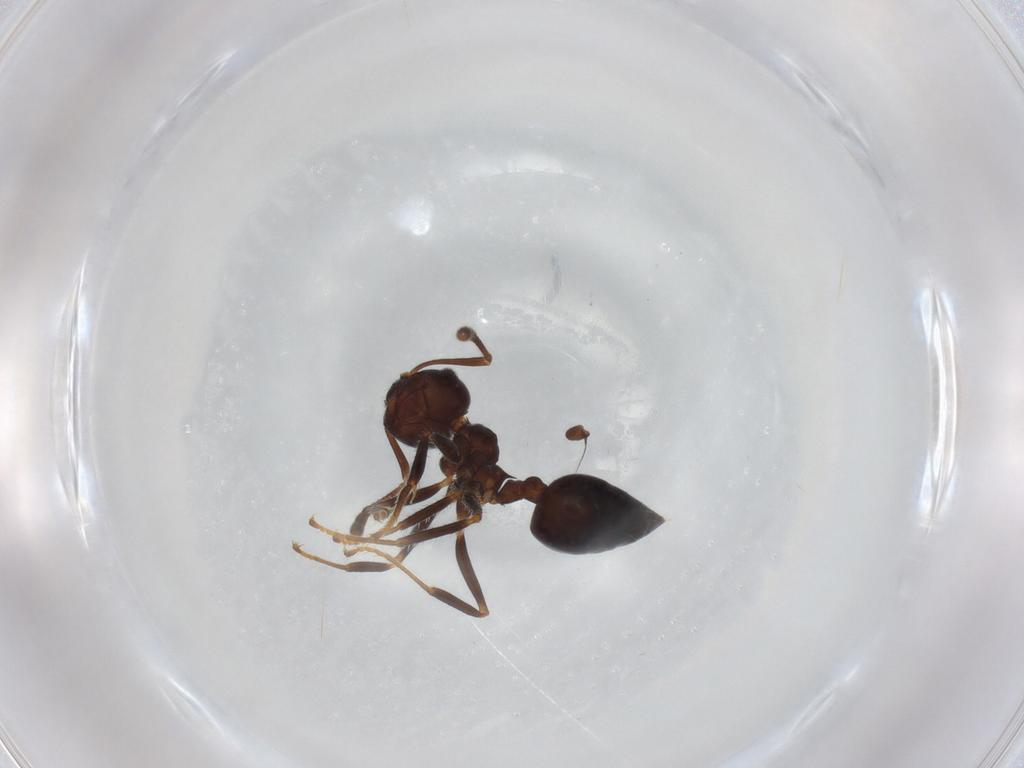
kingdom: Animalia
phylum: Arthropoda
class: Insecta
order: Hymenoptera
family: Formicidae
